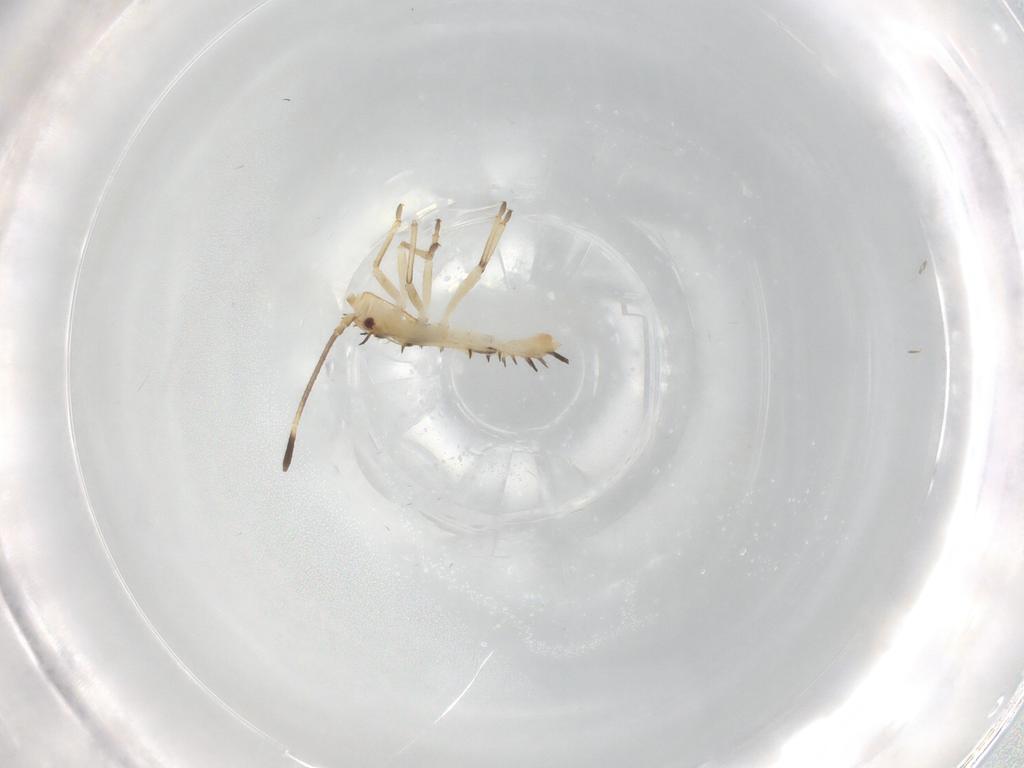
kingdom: Animalia
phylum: Arthropoda
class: Insecta
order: Hemiptera
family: Tingidae
